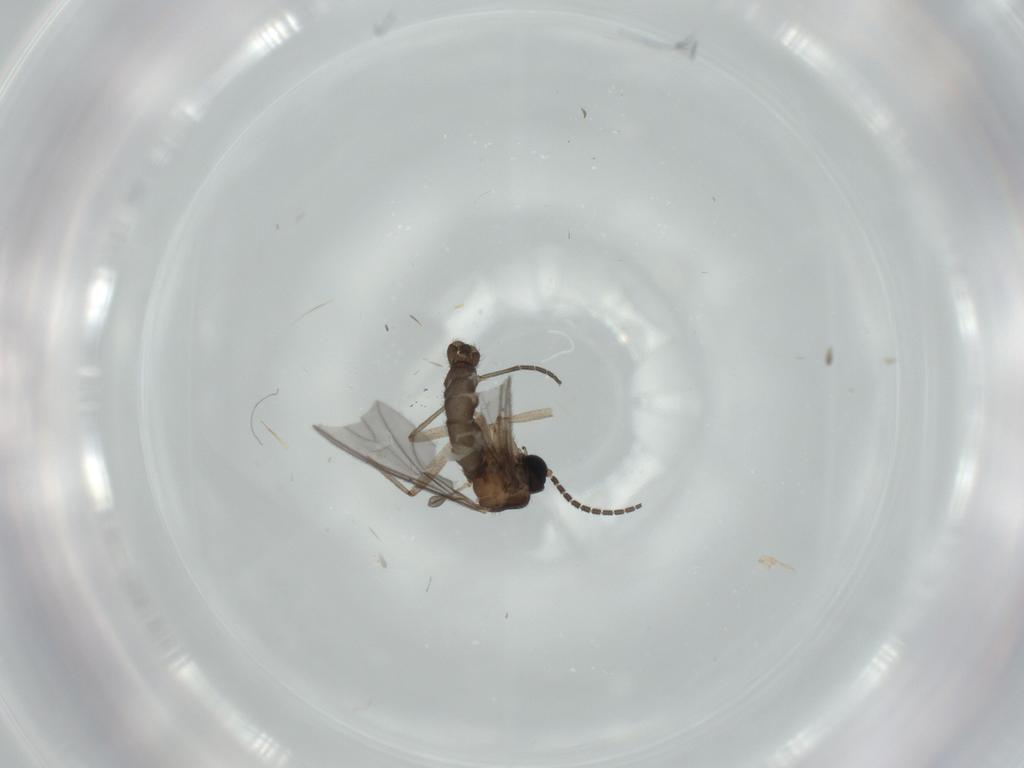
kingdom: Animalia
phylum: Arthropoda
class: Insecta
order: Diptera
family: Sciaridae
